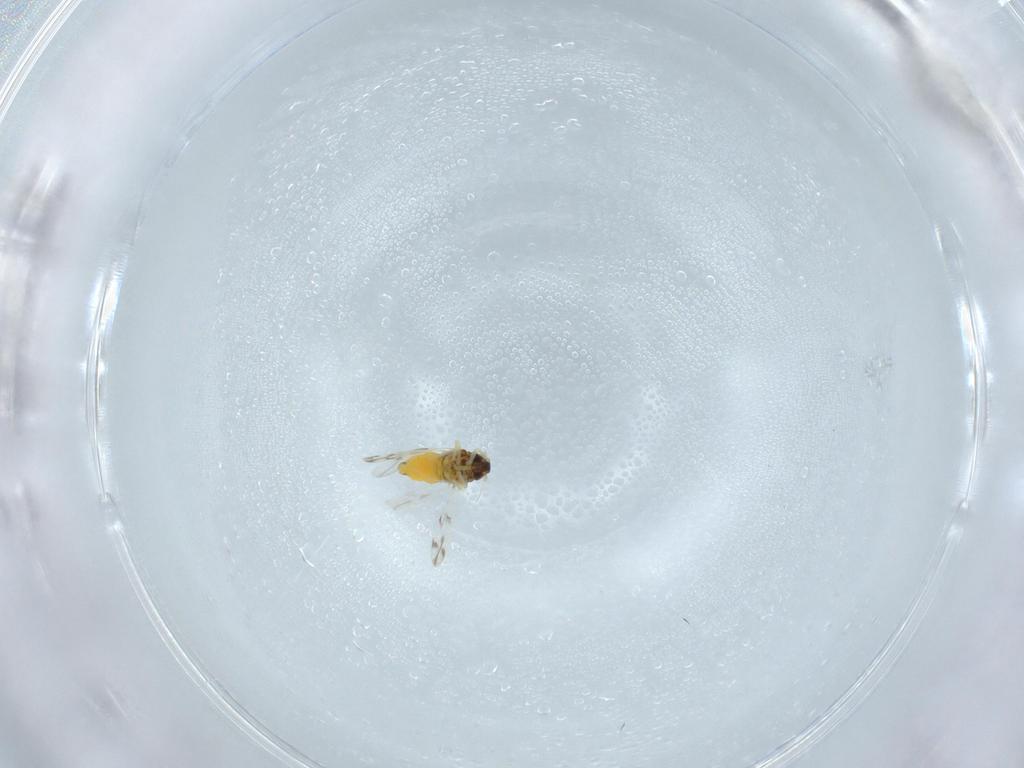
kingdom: Animalia
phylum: Arthropoda
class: Insecta
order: Hemiptera
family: Aleyrodidae
